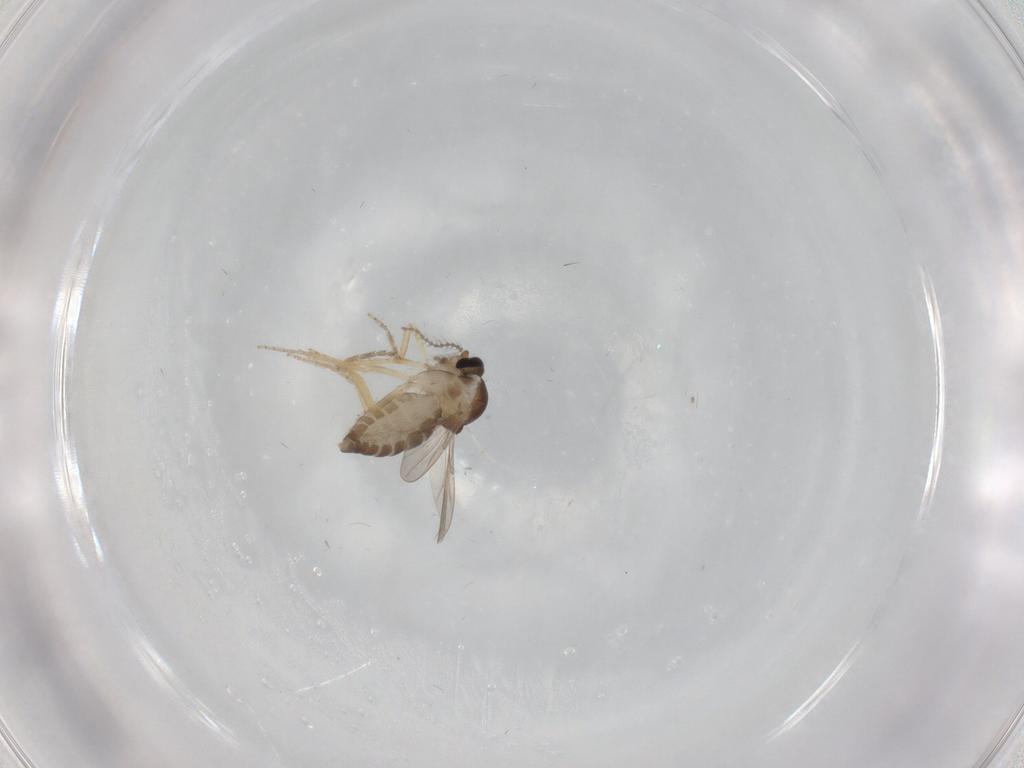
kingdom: Animalia
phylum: Arthropoda
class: Insecta
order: Diptera
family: Ceratopogonidae
